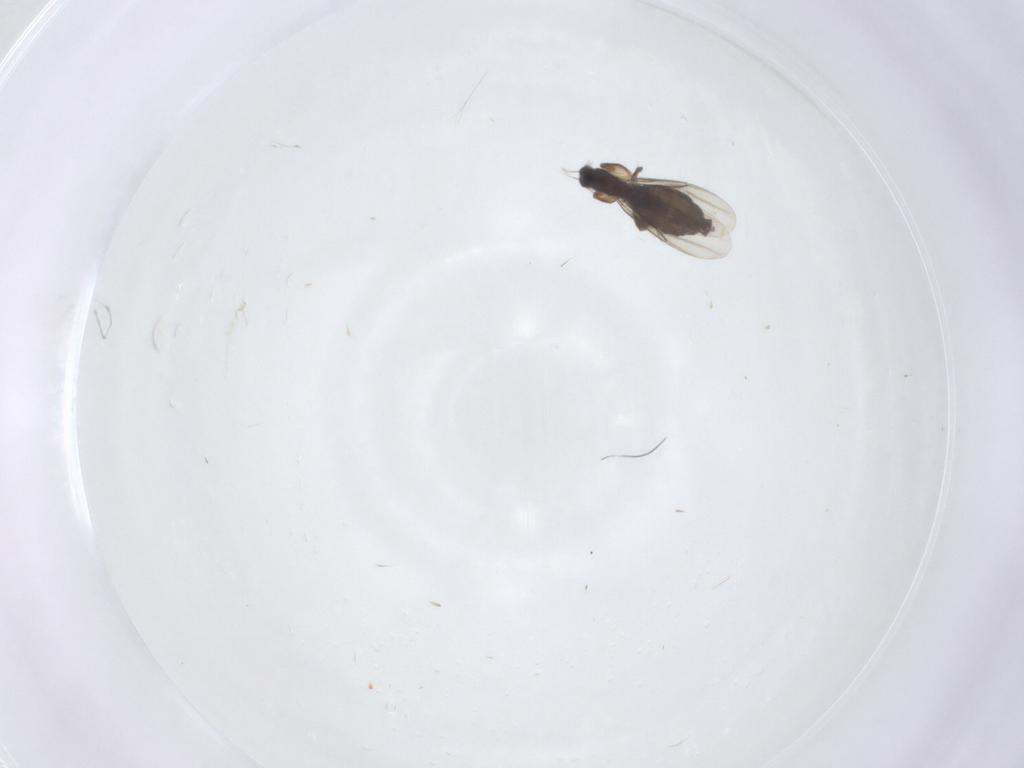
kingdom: Animalia
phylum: Arthropoda
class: Insecta
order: Diptera
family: Phoridae
